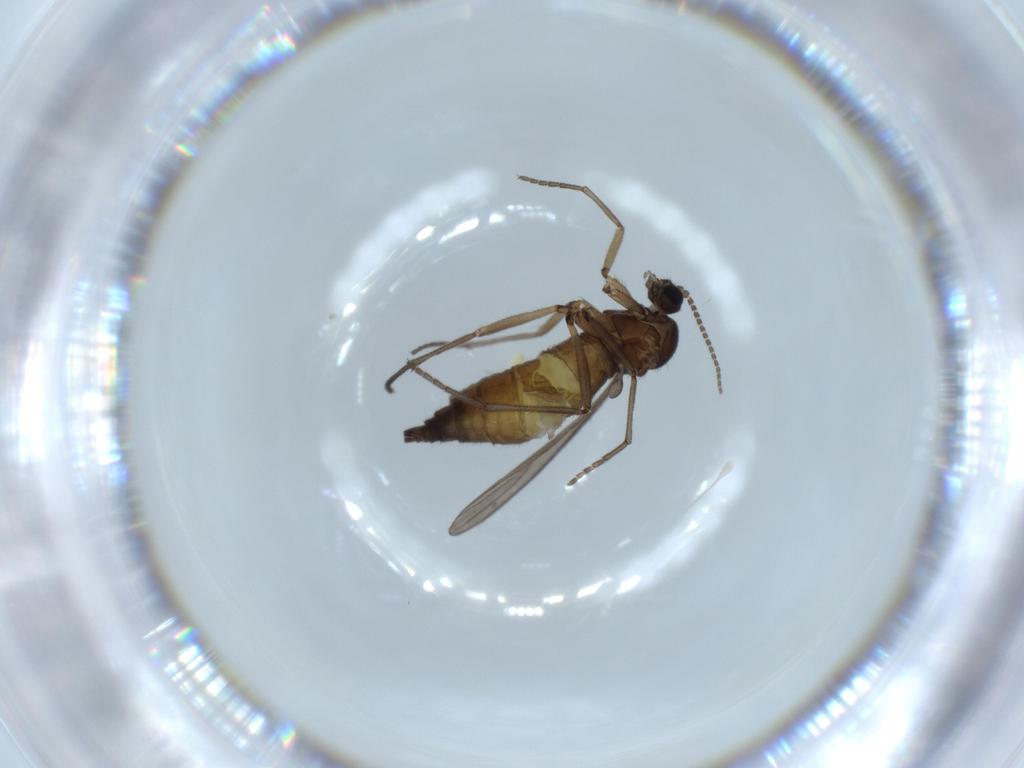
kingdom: Animalia
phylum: Arthropoda
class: Insecta
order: Diptera
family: Sciaridae
